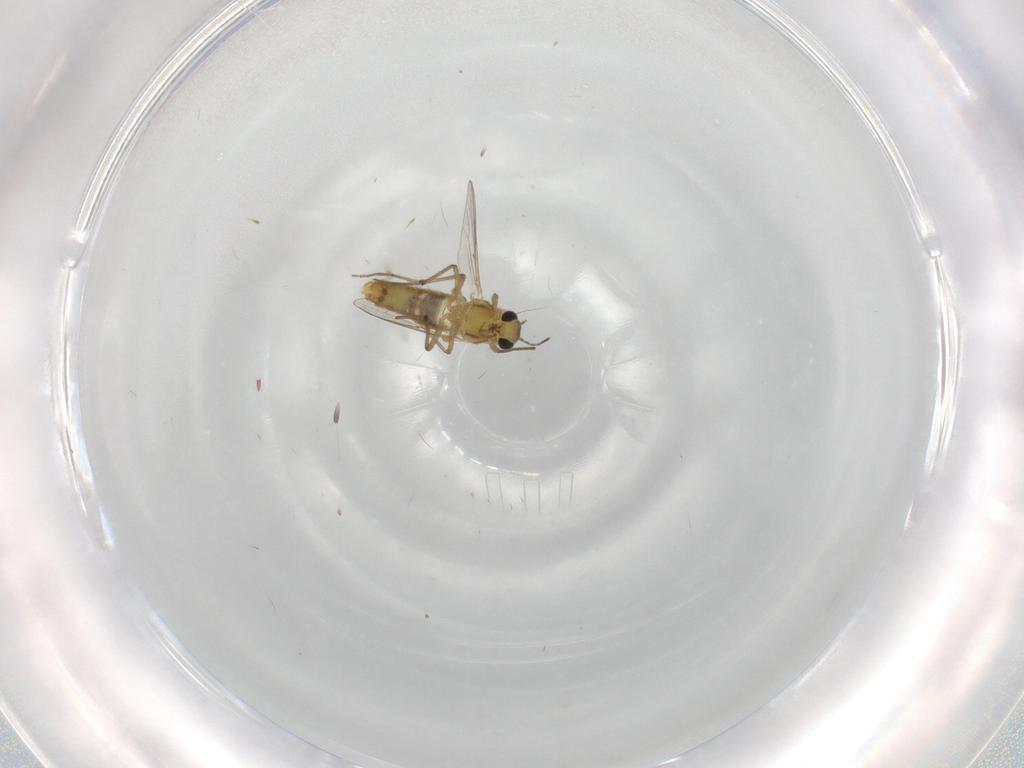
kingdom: Animalia
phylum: Arthropoda
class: Insecta
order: Diptera
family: Chironomidae
